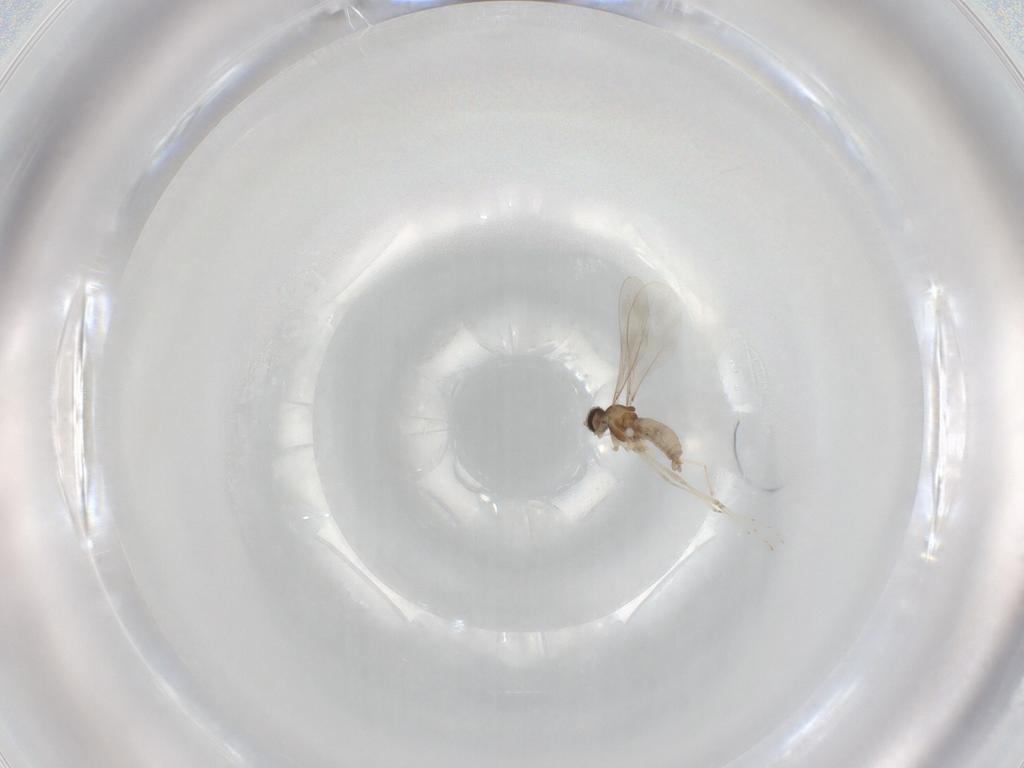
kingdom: Animalia
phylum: Arthropoda
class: Insecta
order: Diptera
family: Cecidomyiidae
